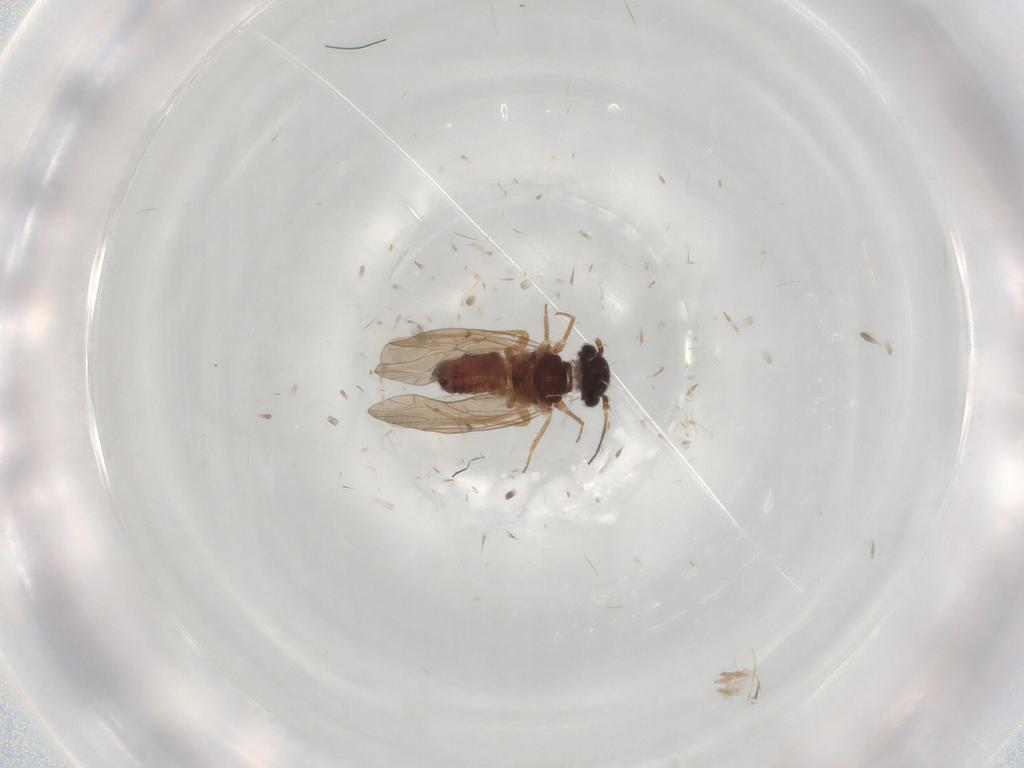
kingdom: Animalia
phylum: Arthropoda
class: Insecta
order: Psocodea
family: Ectopsocidae
